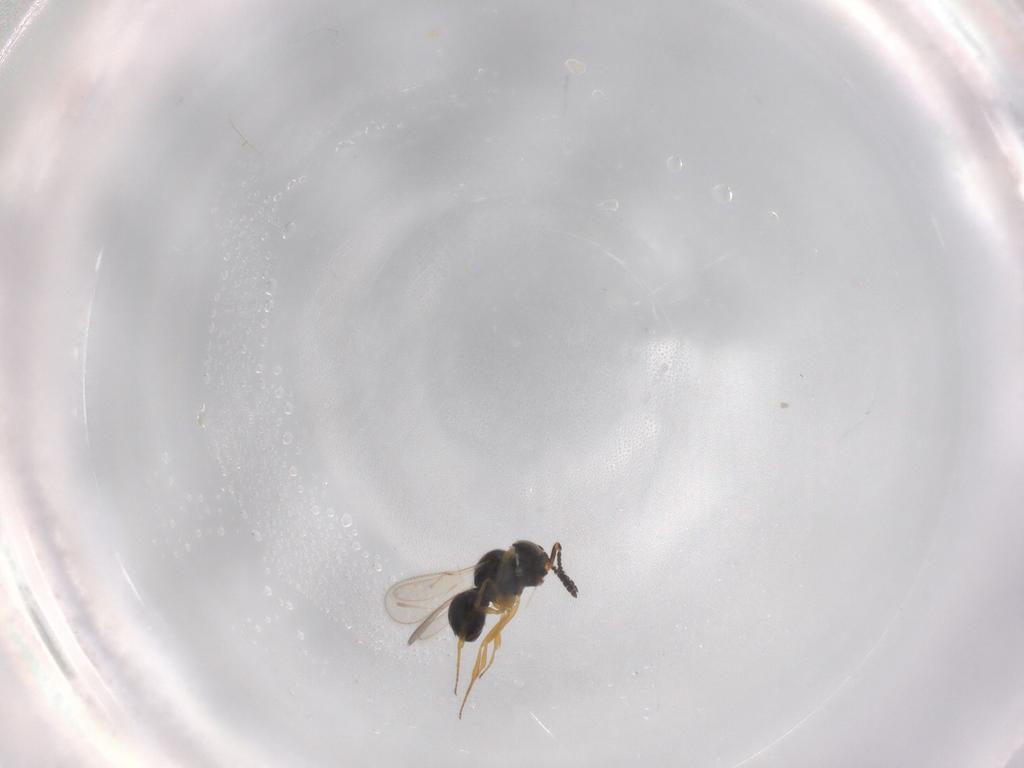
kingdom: Animalia
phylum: Arthropoda
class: Insecta
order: Hymenoptera
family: Scelionidae
